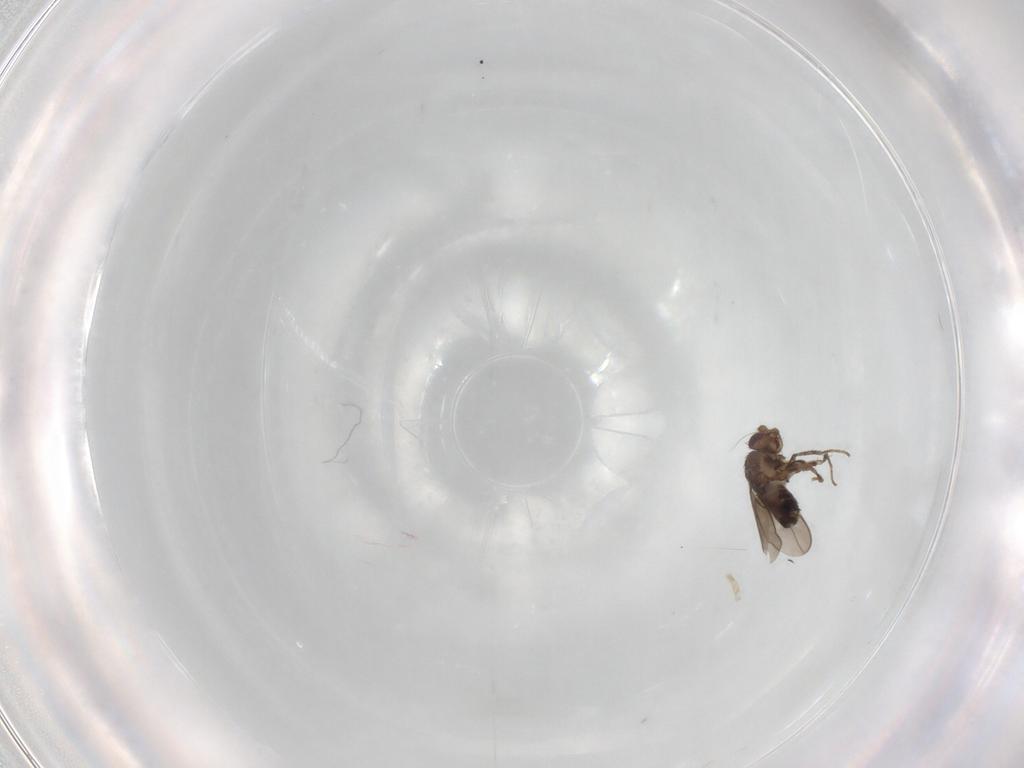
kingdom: Animalia
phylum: Arthropoda
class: Insecta
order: Diptera
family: Sphaeroceridae
